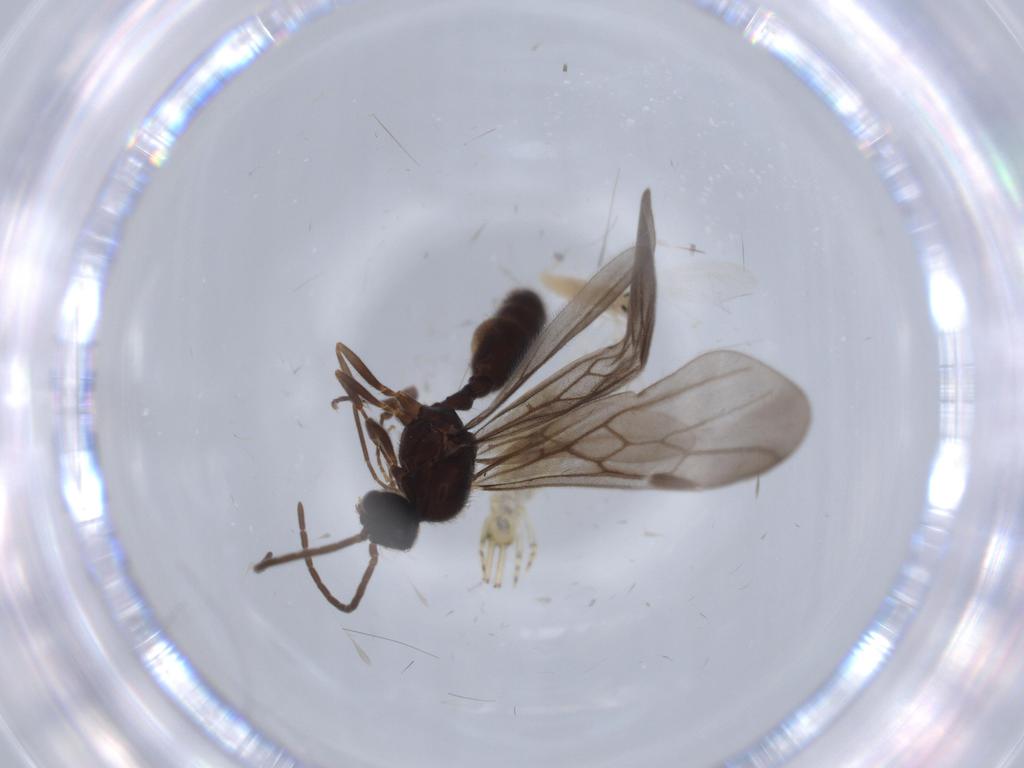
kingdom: Animalia
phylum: Arthropoda
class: Insecta
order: Hymenoptera
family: Formicidae
